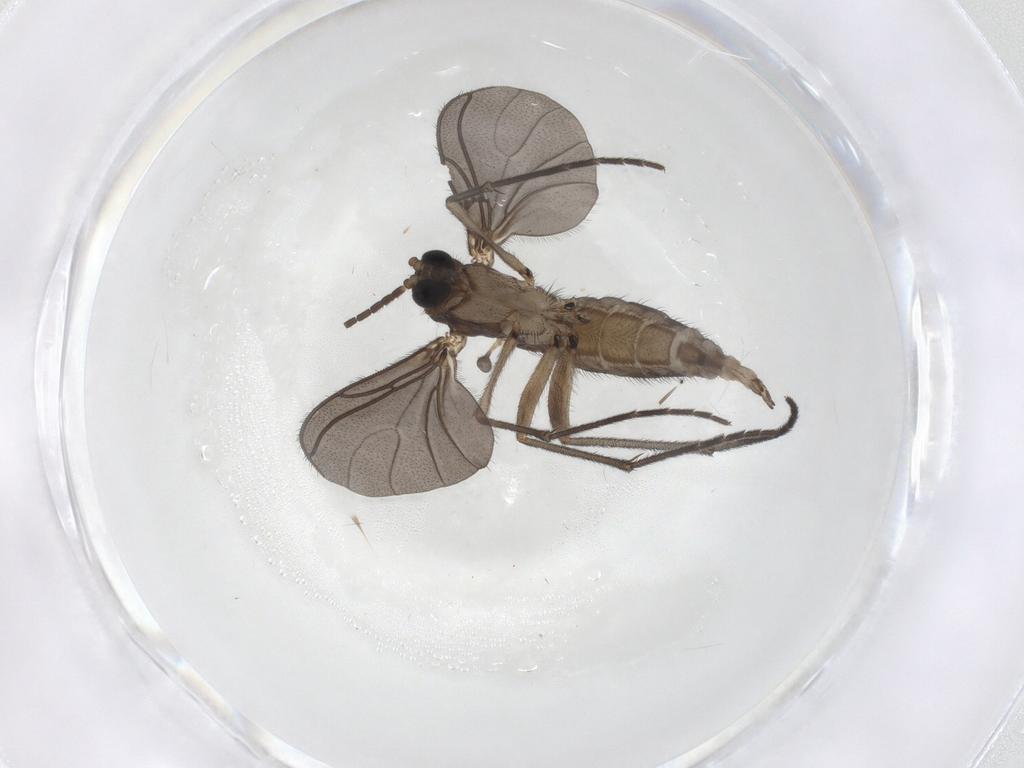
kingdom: Animalia
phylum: Arthropoda
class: Insecta
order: Diptera
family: Sciaridae
